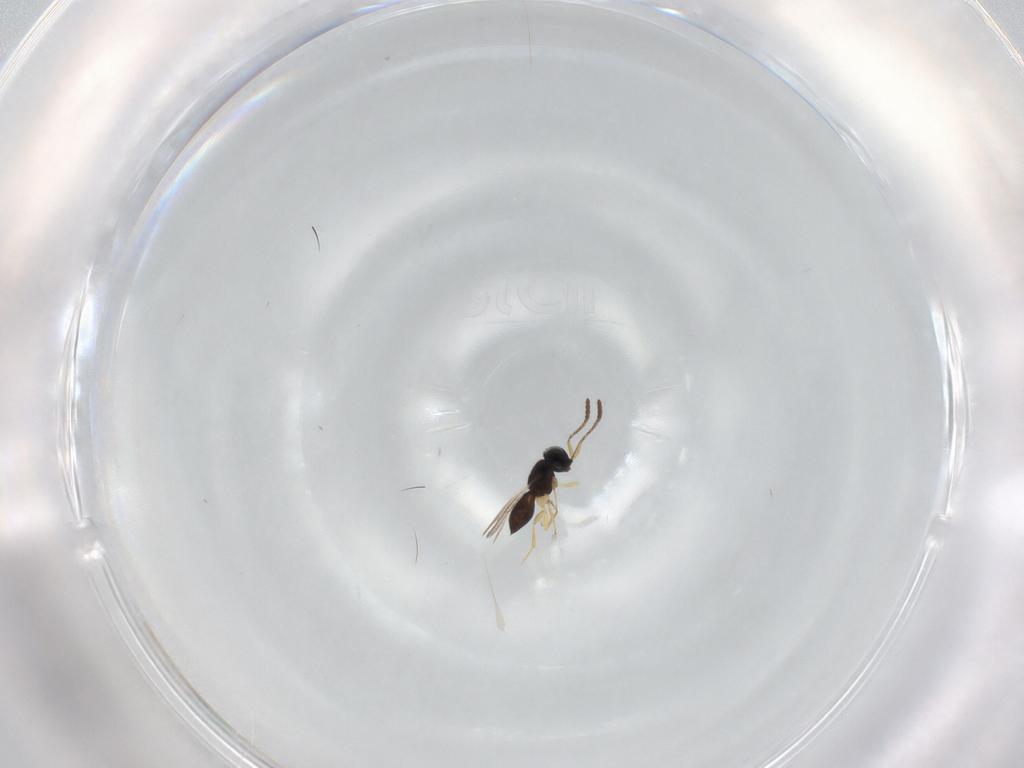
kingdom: Animalia
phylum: Arthropoda
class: Insecta
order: Hymenoptera
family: Scelionidae
